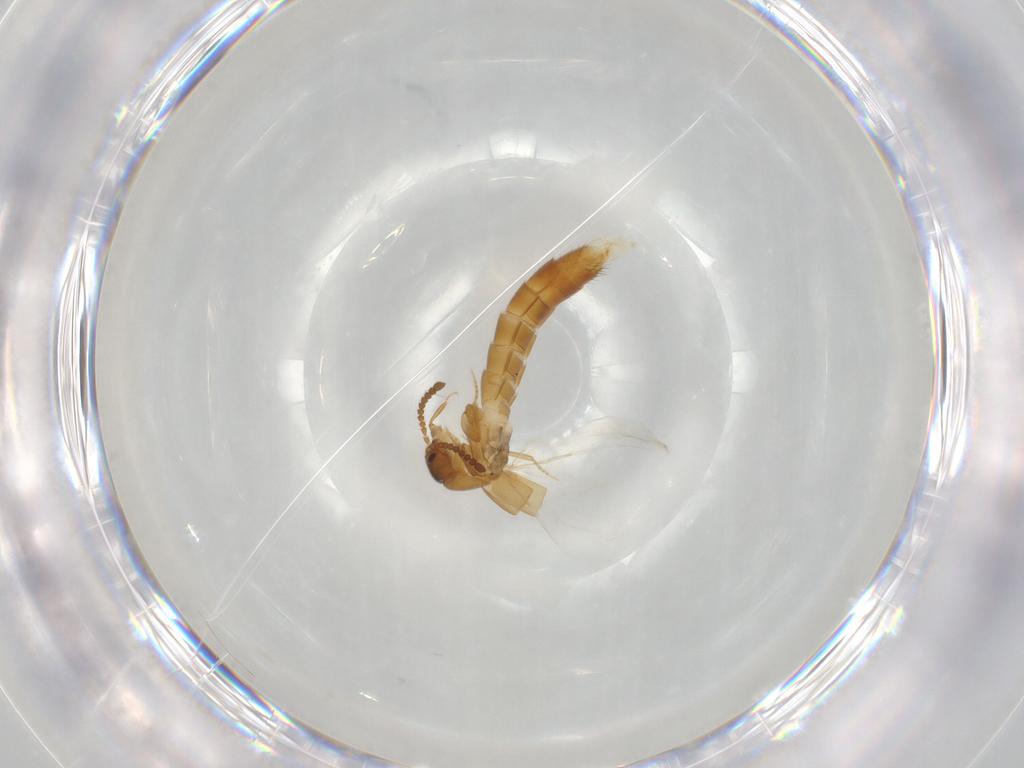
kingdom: Animalia
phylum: Arthropoda
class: Insecta
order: Coleoptera
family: Staphylinidae
